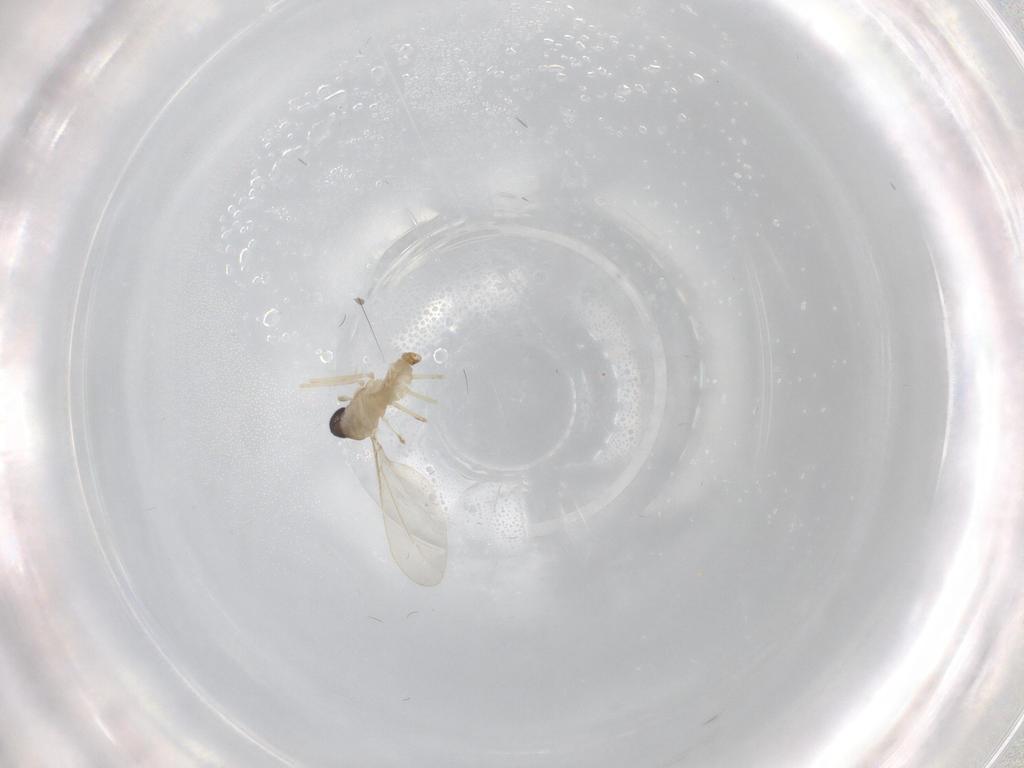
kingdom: Animalia
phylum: Arthropoda
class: Insecta
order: Diptera
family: Cecidomyiidae
